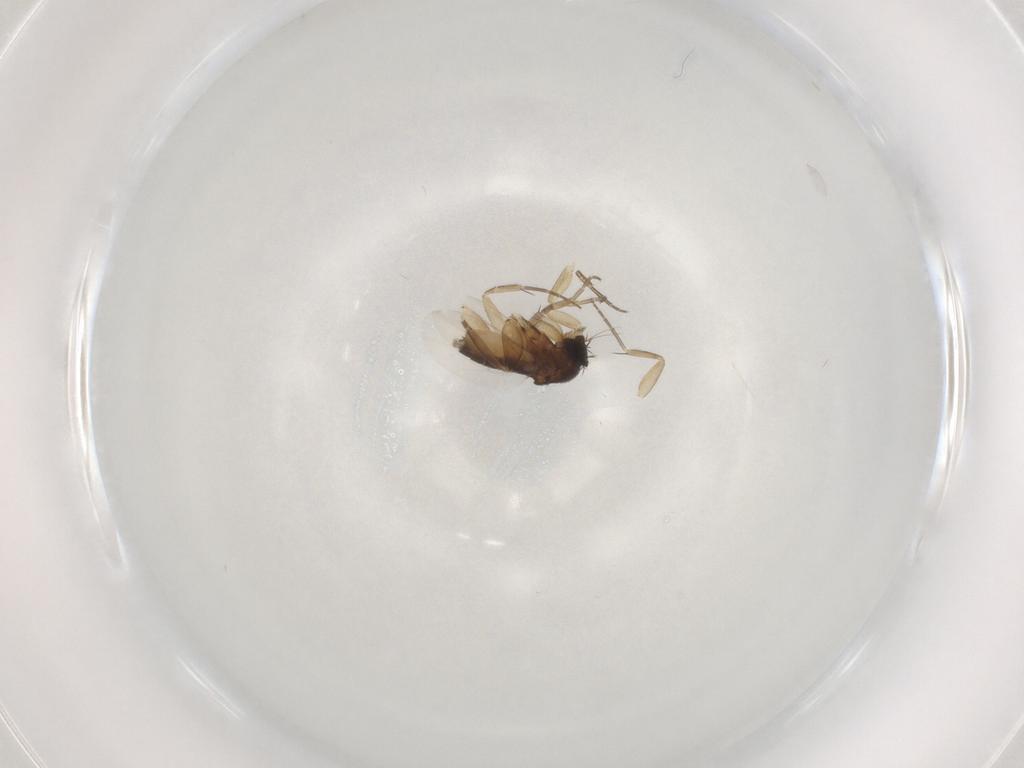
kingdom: Animalia
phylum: Arthropoda
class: Insecta
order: Diptera
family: Phoridae
